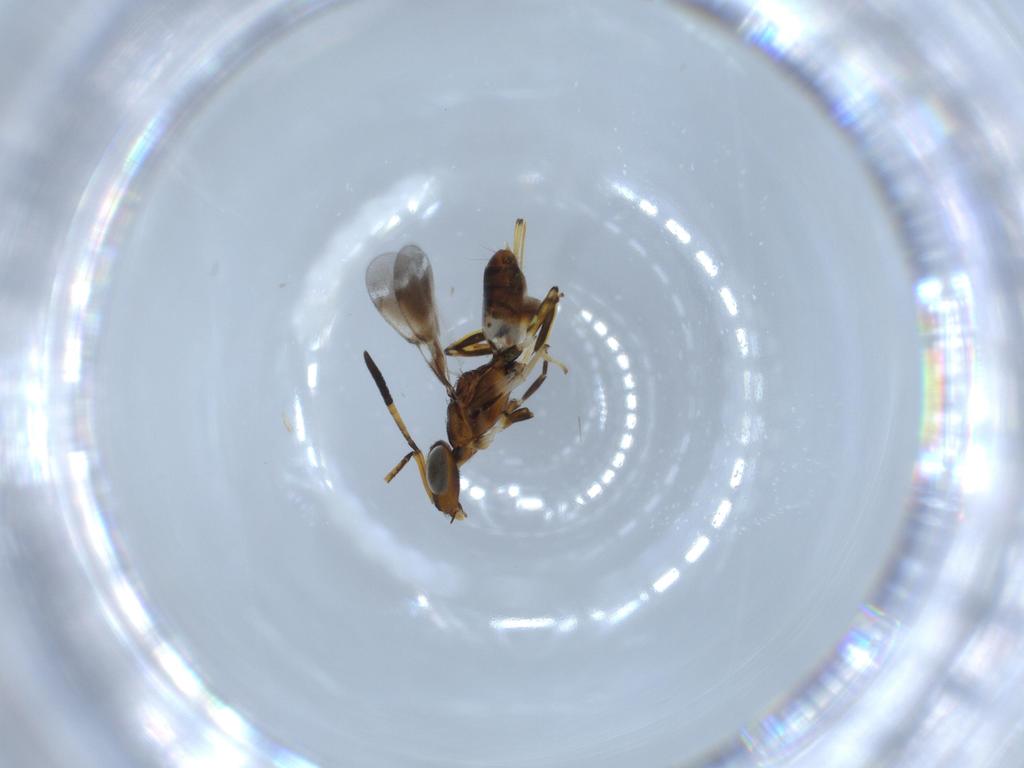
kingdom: Animalia
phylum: Arthropoda
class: Insecta
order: Hymenoptera
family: Eupelmidae
